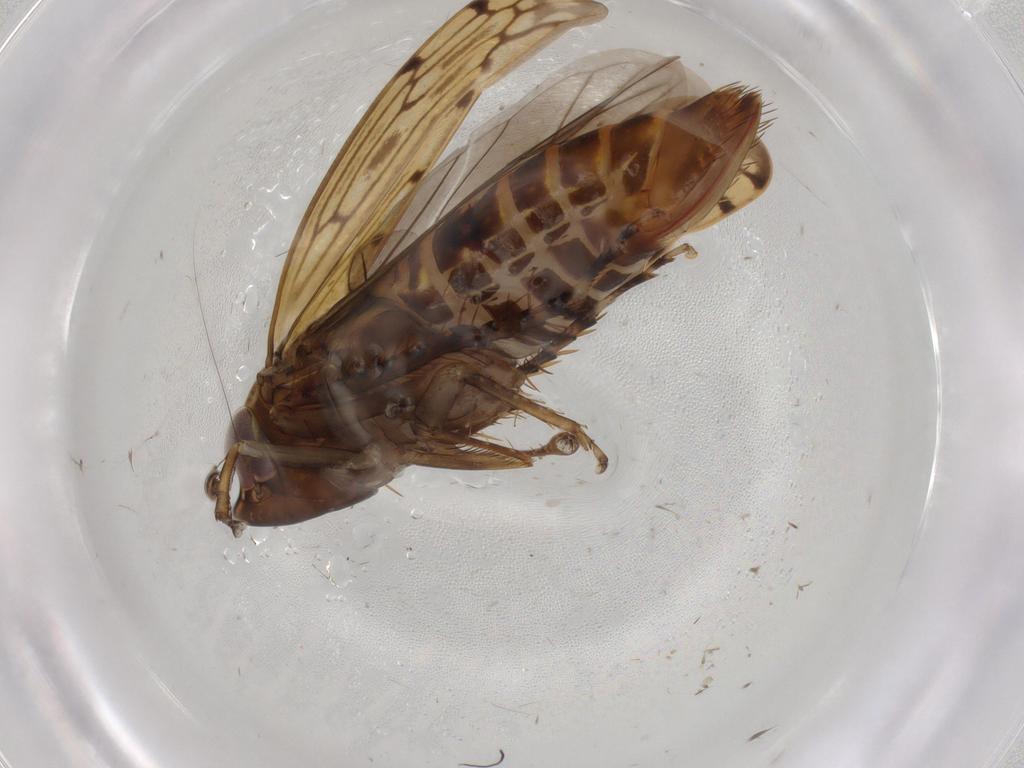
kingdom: Animalia
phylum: Arthropoda
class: Insecta
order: Hemiptera
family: Cicadellidae
